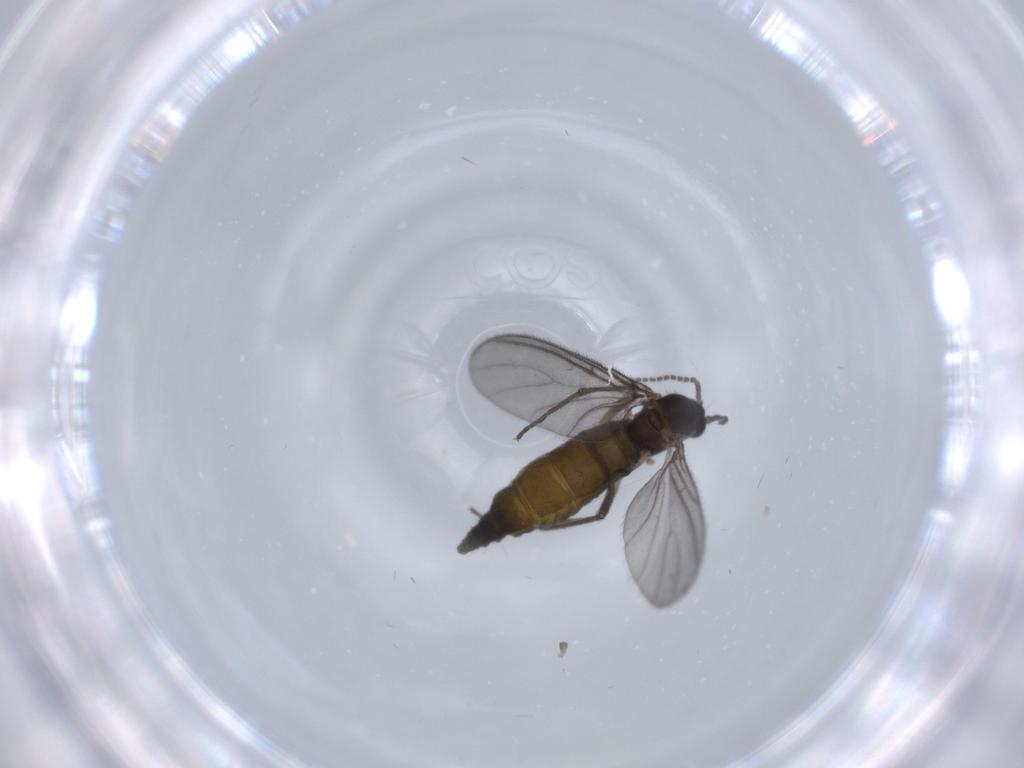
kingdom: Animalia
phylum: Arthropoda
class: Insecta
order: Diptera
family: Sciaridae
